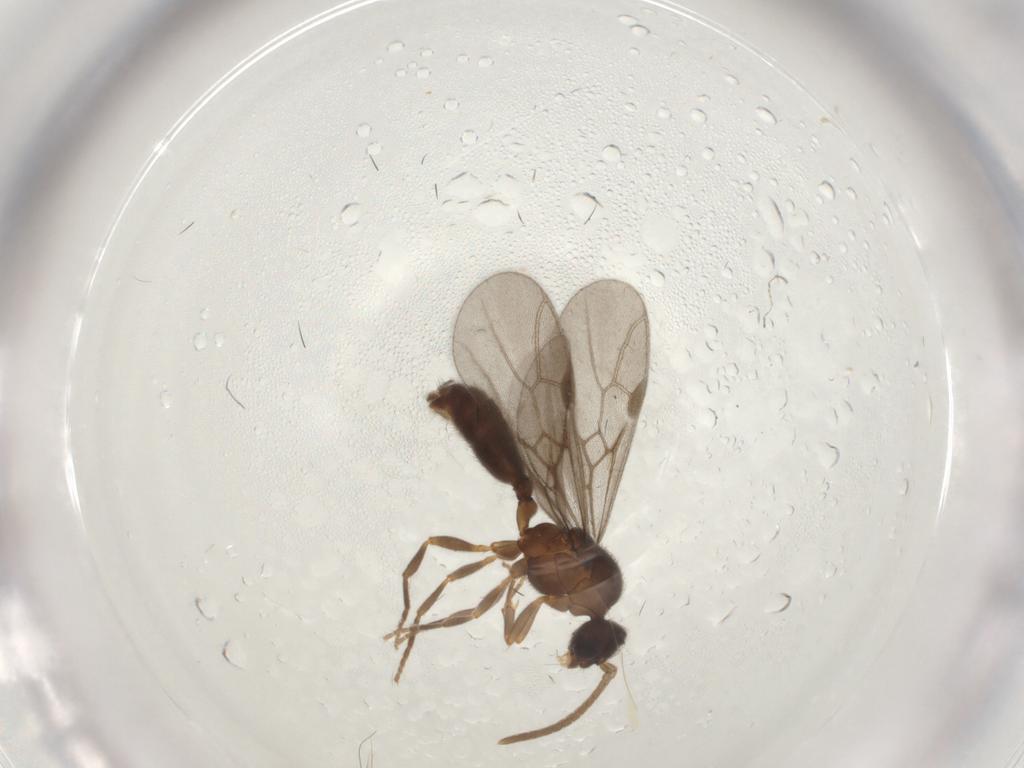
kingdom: Animalia
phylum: Arthropoda
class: Insecta
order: Hymenoptera
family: Formicidae
